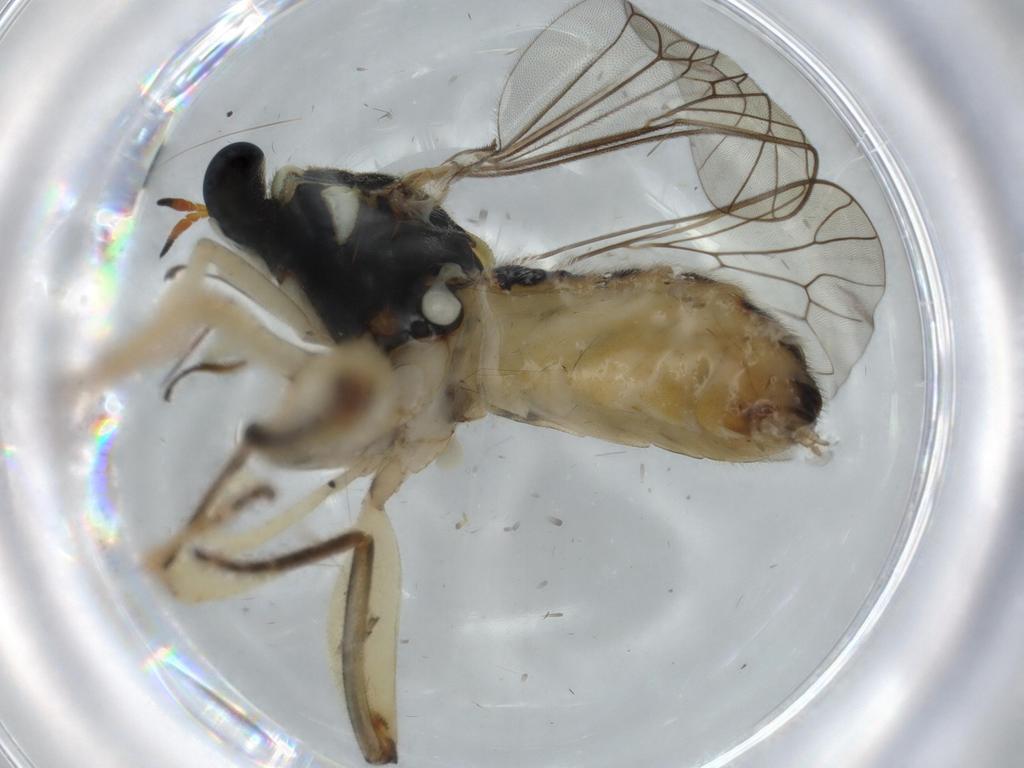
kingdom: Animalia
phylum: Arthropoda
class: Insecta
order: Diptera
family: Xylomyidae
